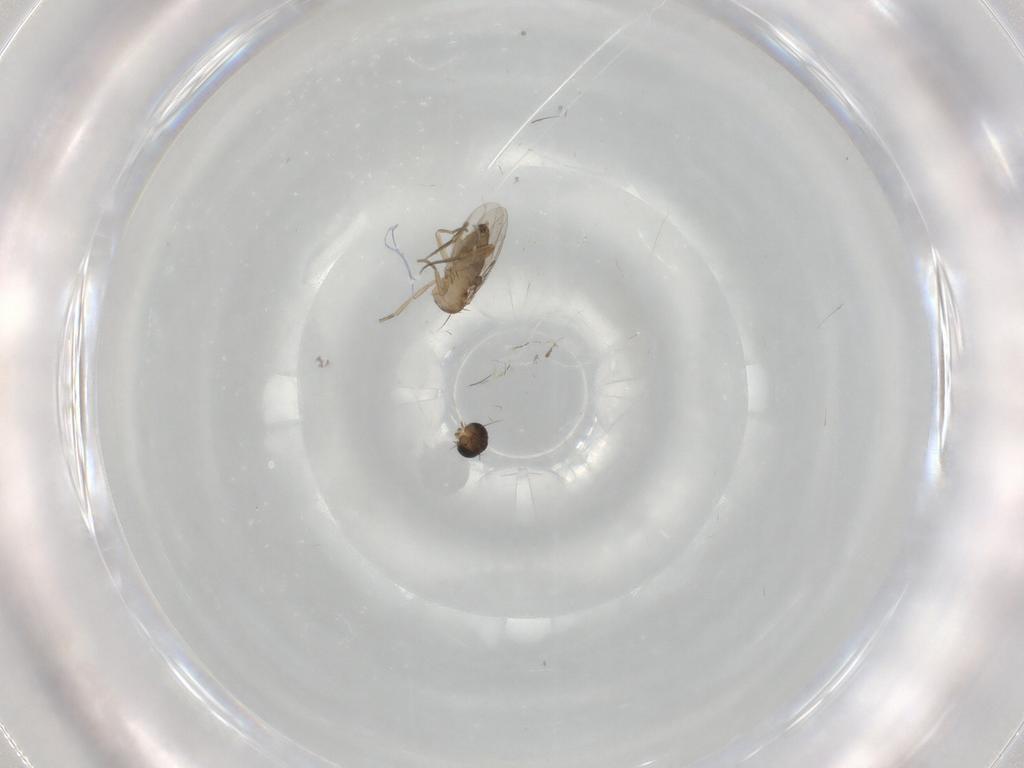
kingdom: Animalia
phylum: Arthropoda
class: Insecta
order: Diptera
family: Phoridae
